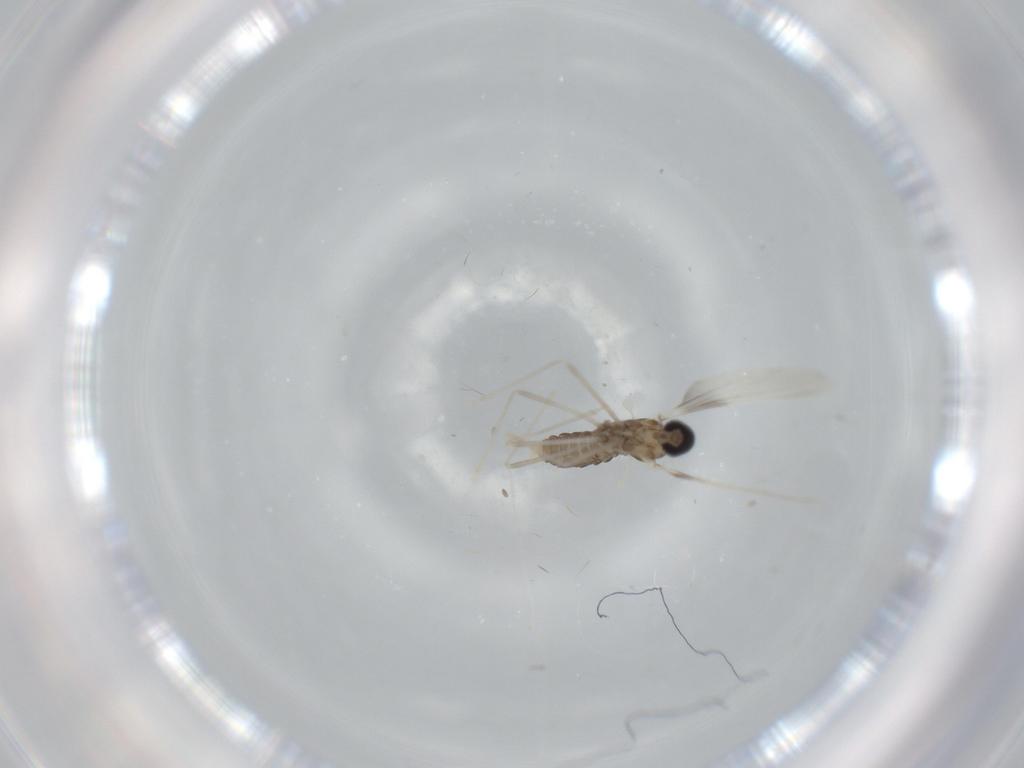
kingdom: Animalia
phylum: Arthropoda
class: Insecta
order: Diptera
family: Cecidomyiidae
